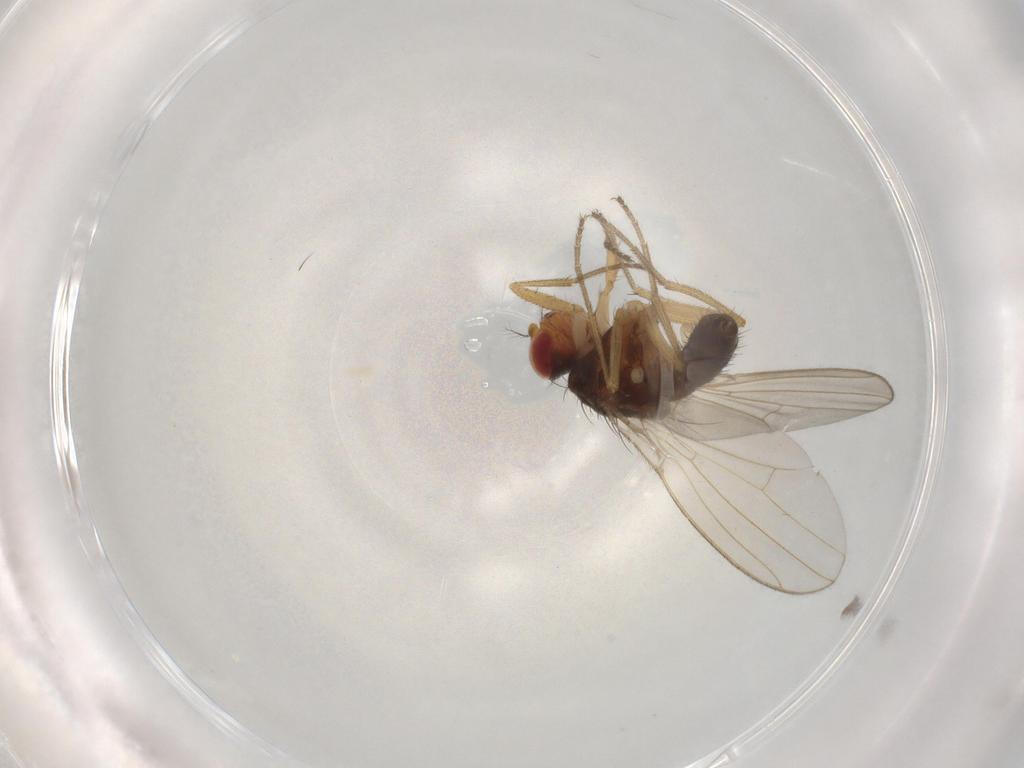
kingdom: Animalia
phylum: Arthropoda
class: Insecta
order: Diptera
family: Drosophilidae
